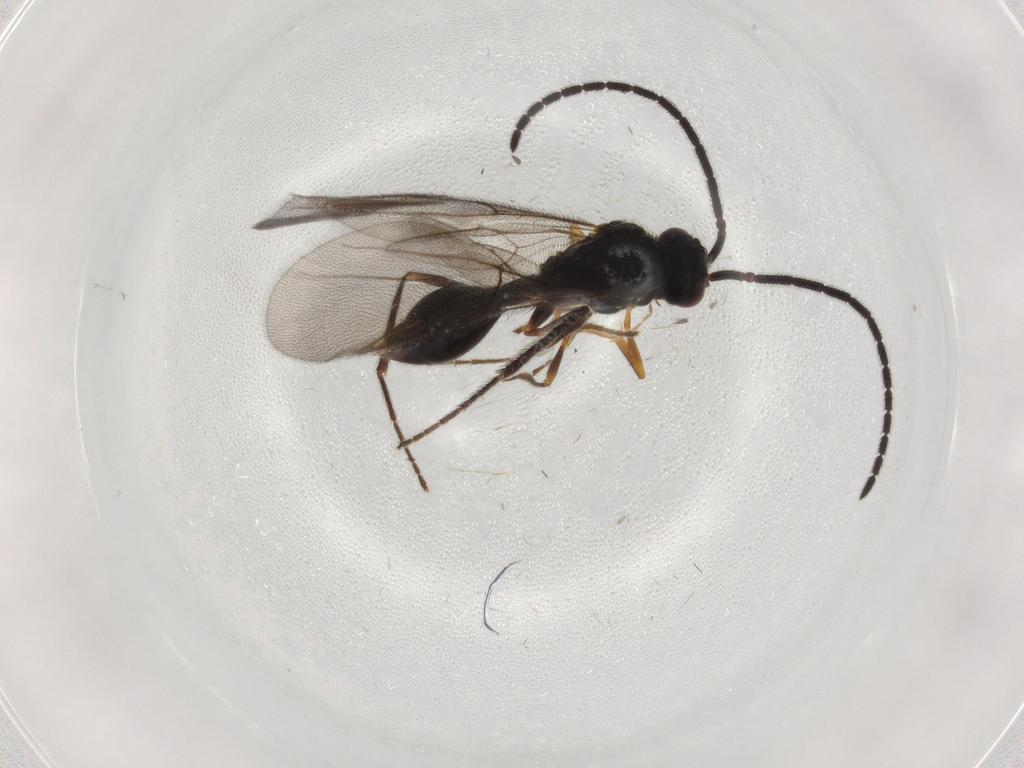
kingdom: Animalia
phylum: Arthropoda
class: Insecta
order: Hymenoptera
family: Diapriidae
